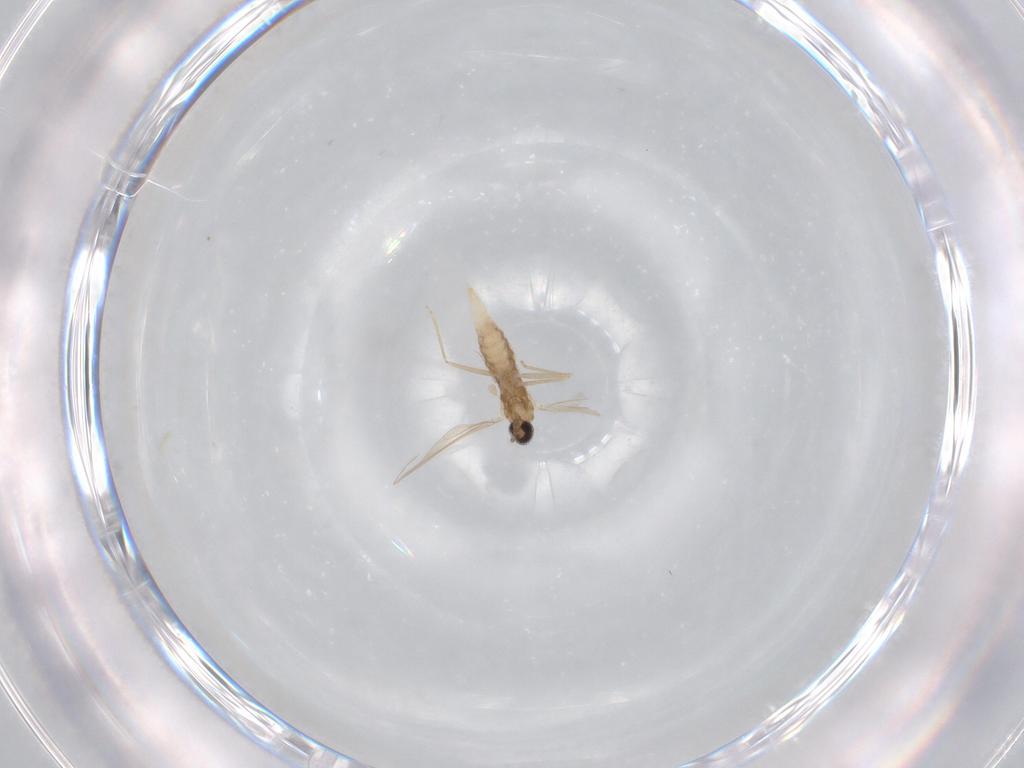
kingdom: Animalia
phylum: Arthropoda
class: Insecta
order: Diptera
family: Cecidomyiidae
